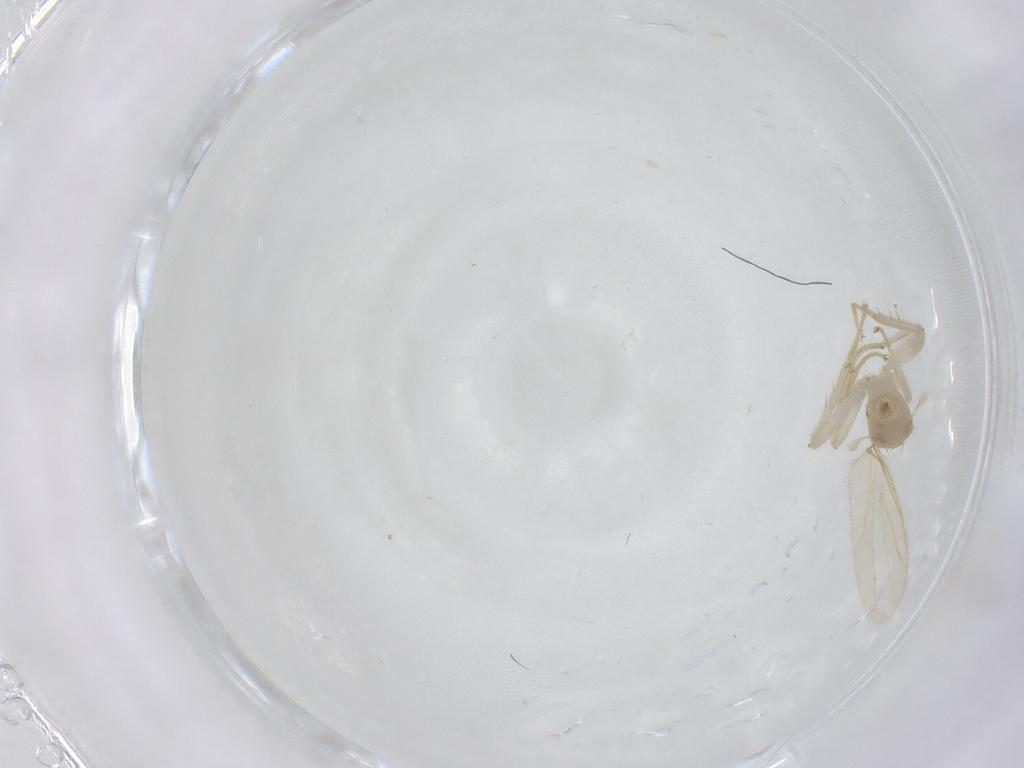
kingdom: Animalia
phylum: Arthropoda
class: Insecta
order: Diptera
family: Sciaridae
